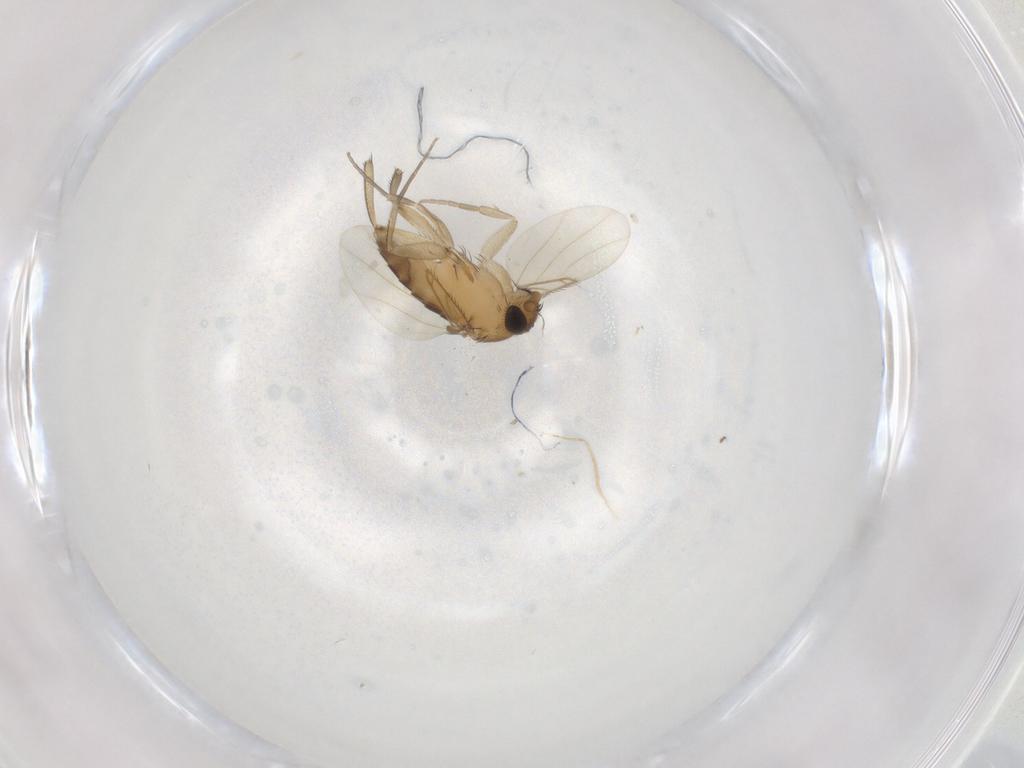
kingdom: Animalia
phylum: Arthropoda
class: Insecta
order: Diptera
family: Phoridae
